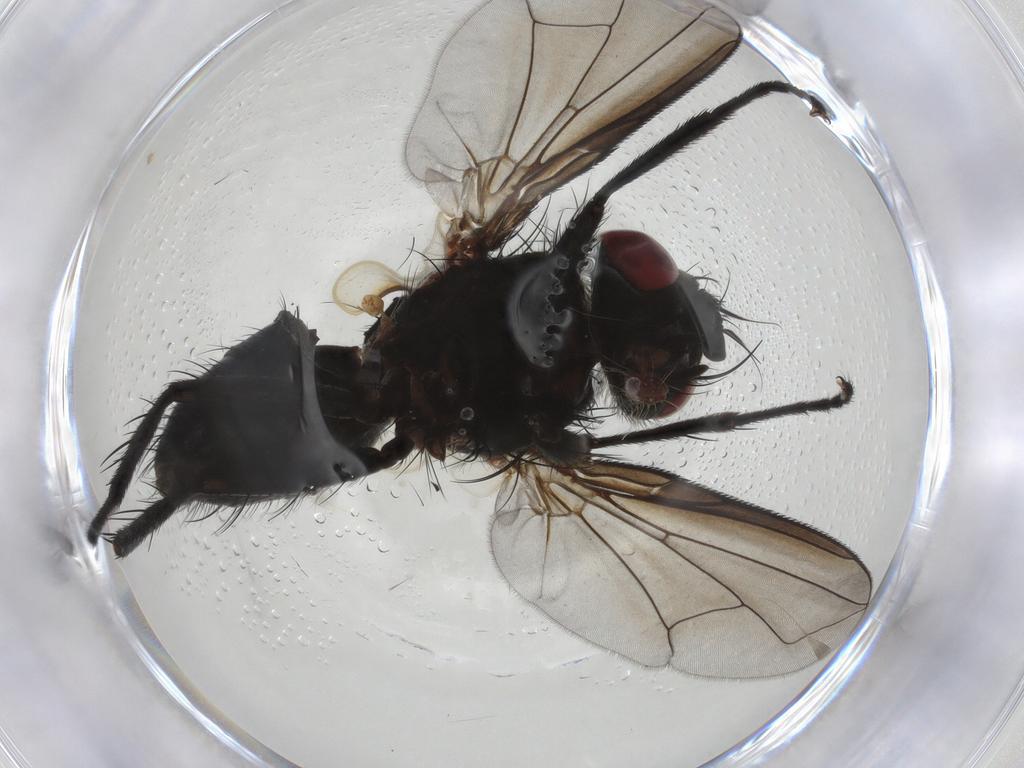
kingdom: Animalia
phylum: Arthropoda
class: Insecta
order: Diptera
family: Tachinidae
